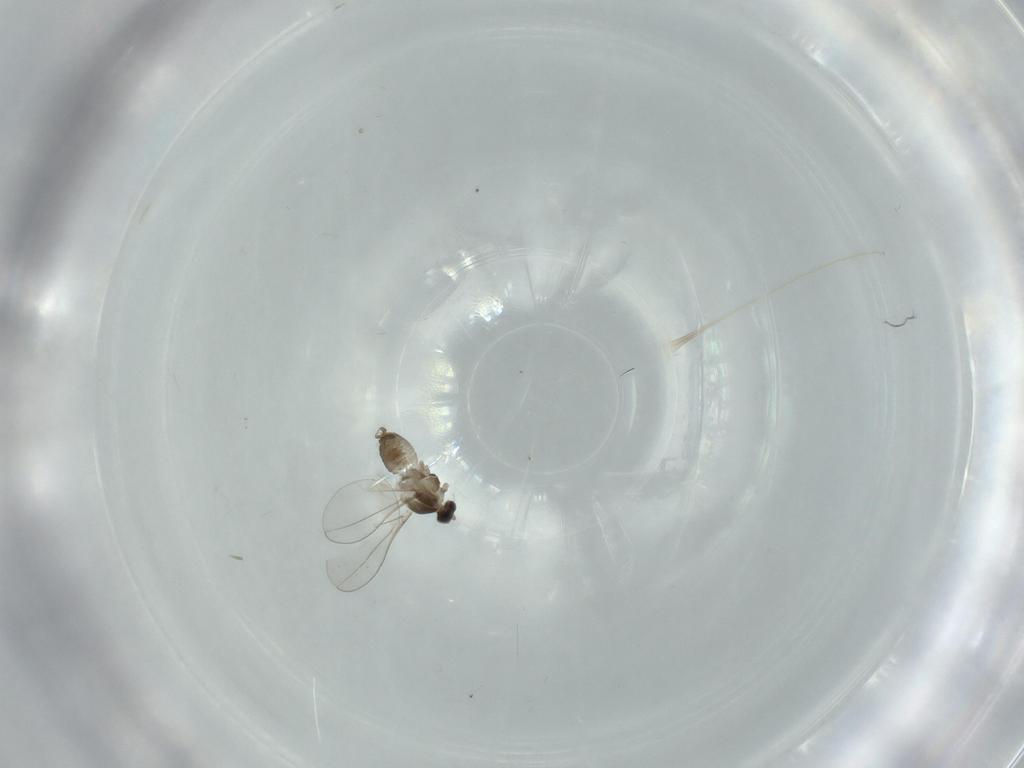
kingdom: Animalia
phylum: Arthropoda
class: Insecta
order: Diptera
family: Cecidomyiidae
